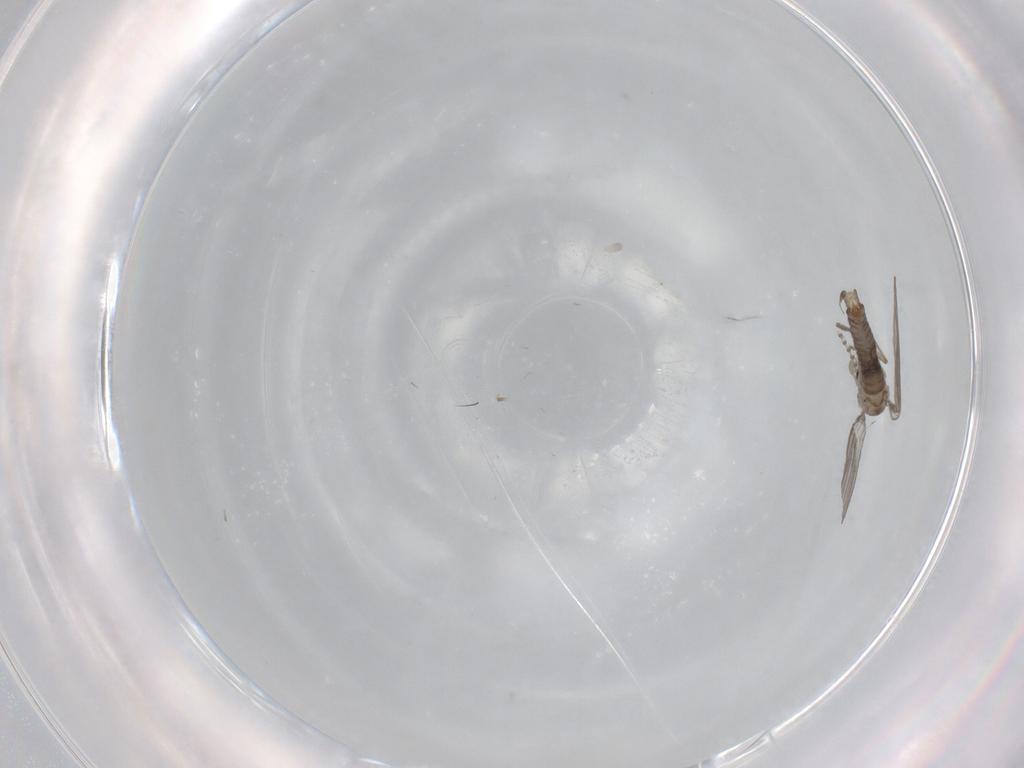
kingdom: Animalia
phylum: Arthropoda
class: Insecta
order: Diptera
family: Psychodidae
